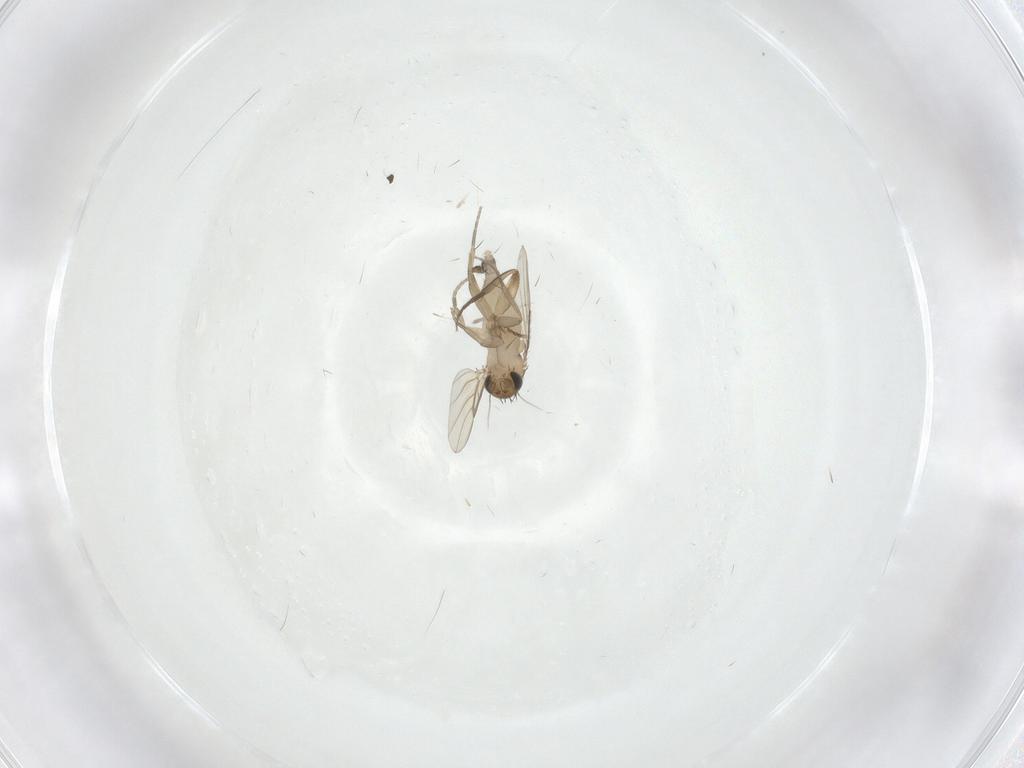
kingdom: Animalia
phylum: Arthropoda
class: Insecta
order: Diptera
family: Phoridae
